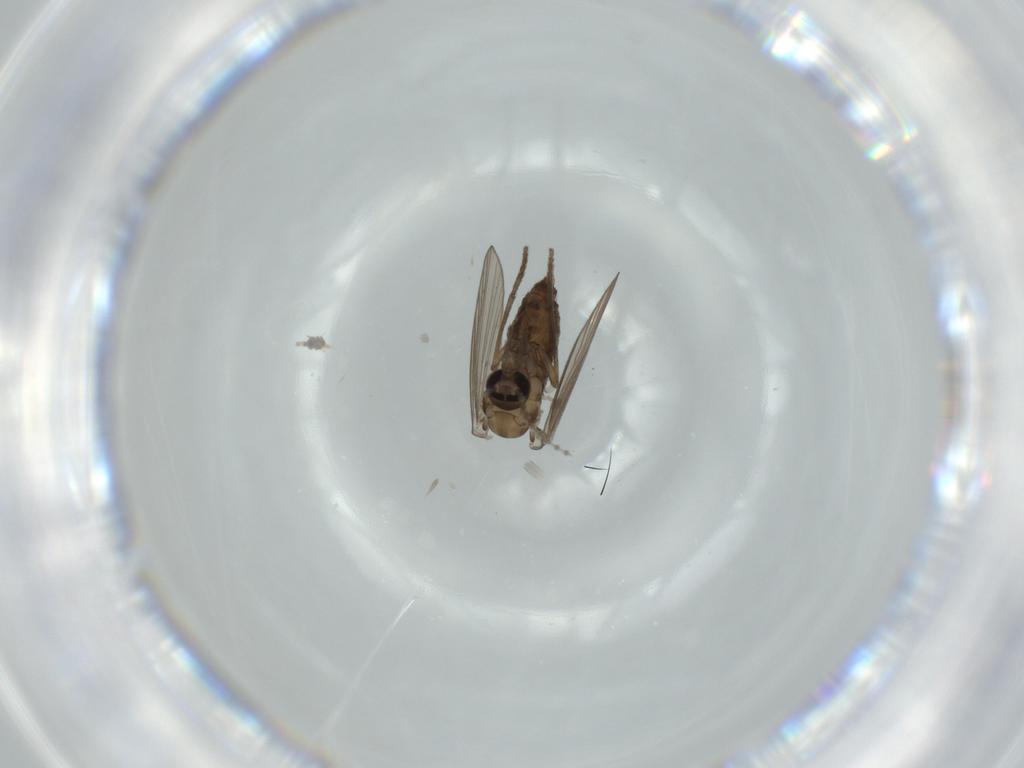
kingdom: Animalia
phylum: Arthropoda
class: Insecta
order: Diptera
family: Psychodidae
